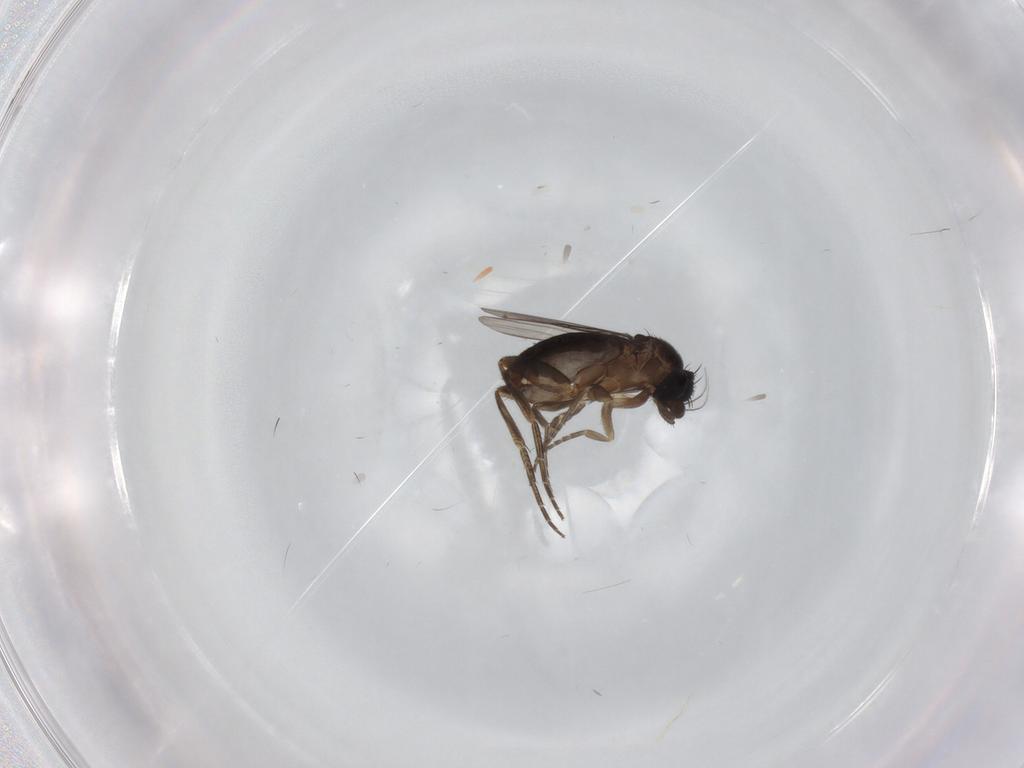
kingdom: Animalia
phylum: Arthropoda
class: Insecta
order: Diptera
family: Phoridae
